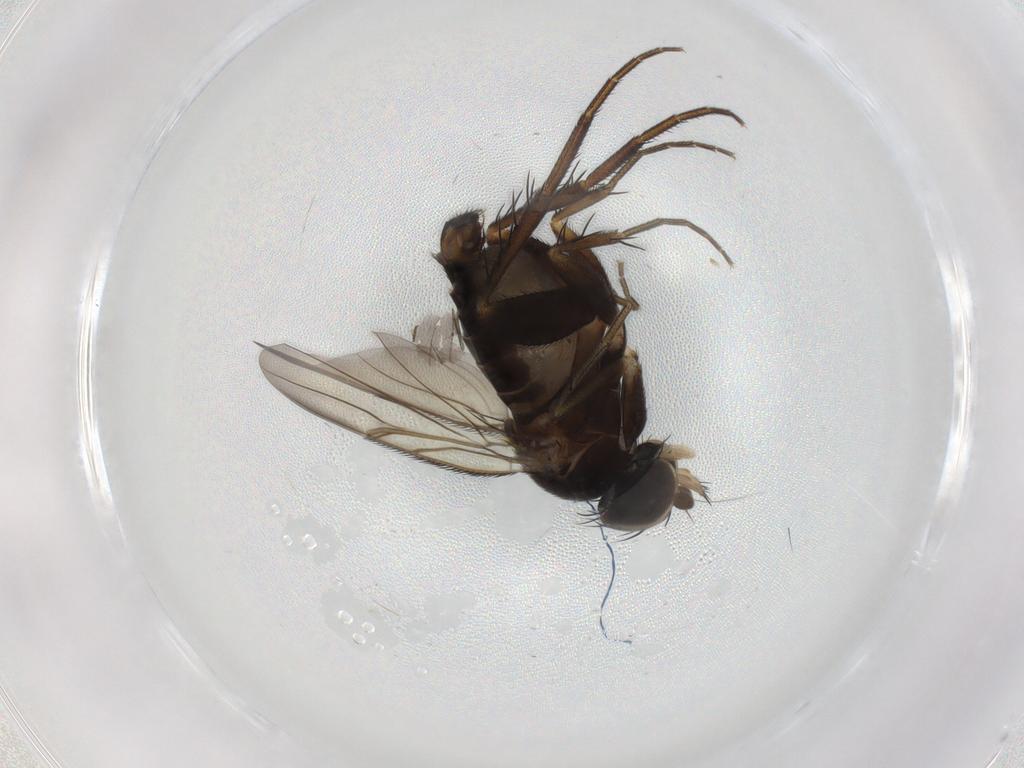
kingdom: Animalia
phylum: Arthropoda
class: Insecta
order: Diptera
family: Phoridae
